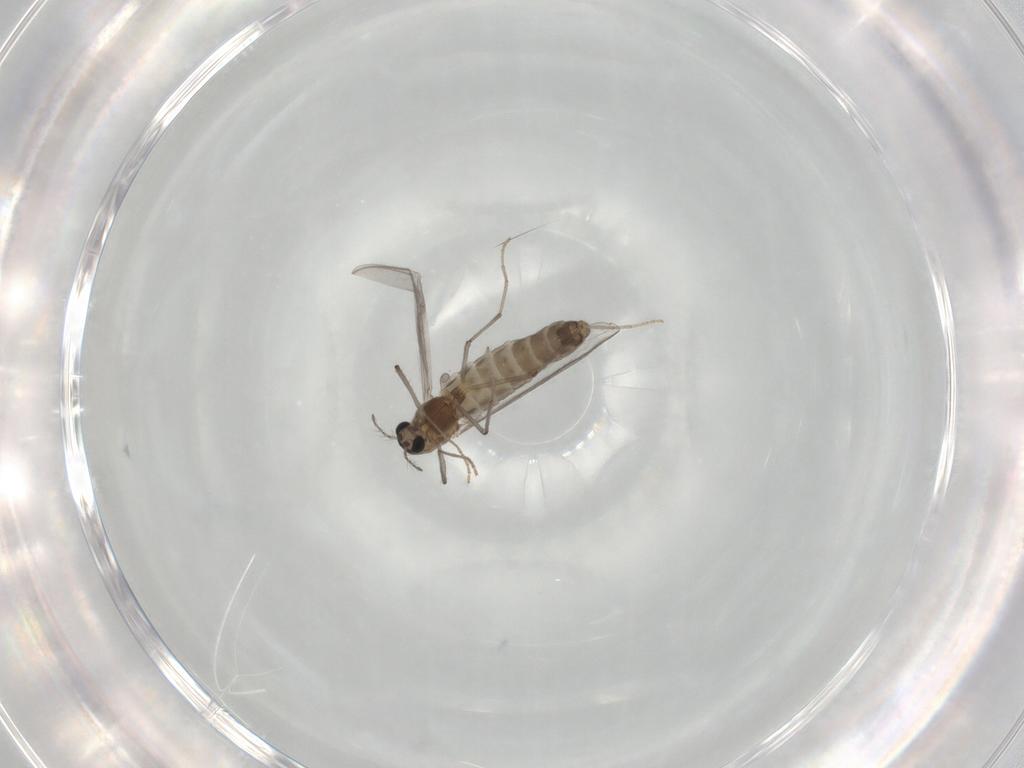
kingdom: Animalia
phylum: Arthropoda
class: Insecta
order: Diptera
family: Chironomidae
